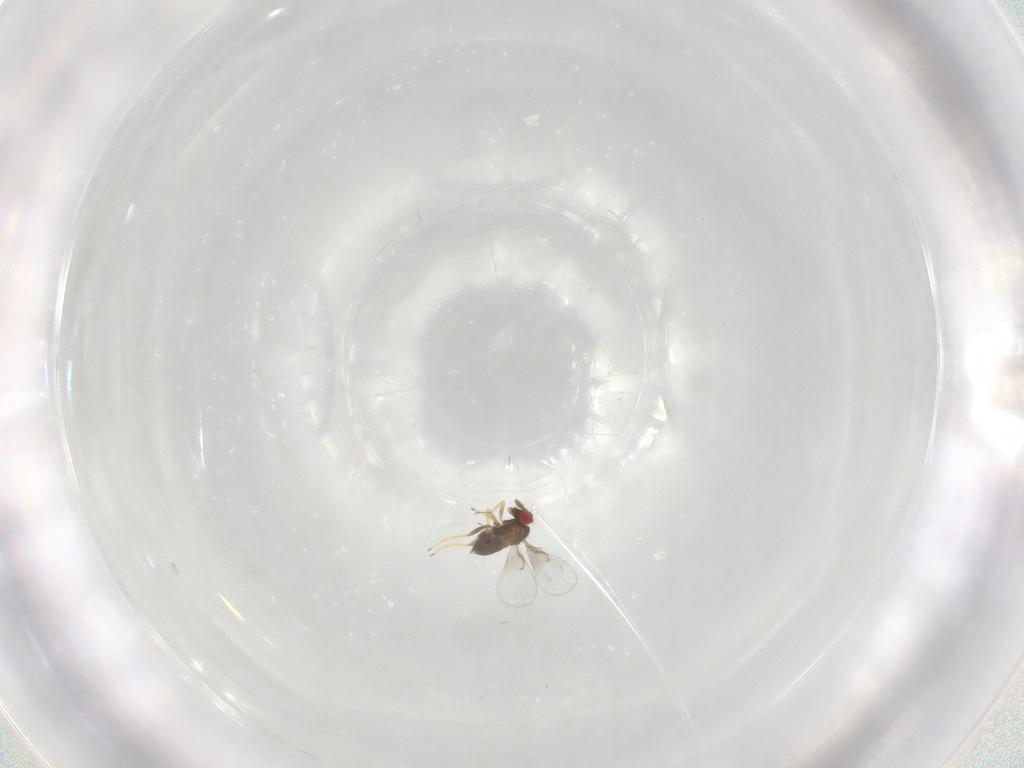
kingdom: Animalia
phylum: Arthropoda
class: Insecta
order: Hymenoptera
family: Trichogrammatidae
